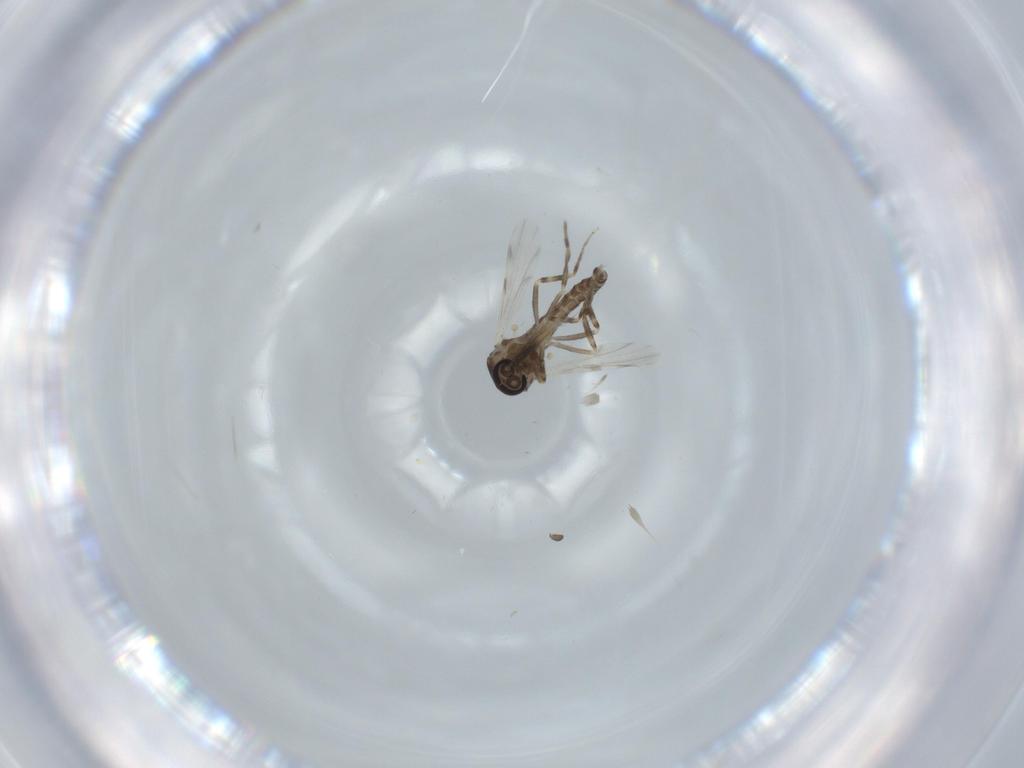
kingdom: Animalia
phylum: Arthropoda
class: Insecta
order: Diptera
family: Ceratopogonidae
